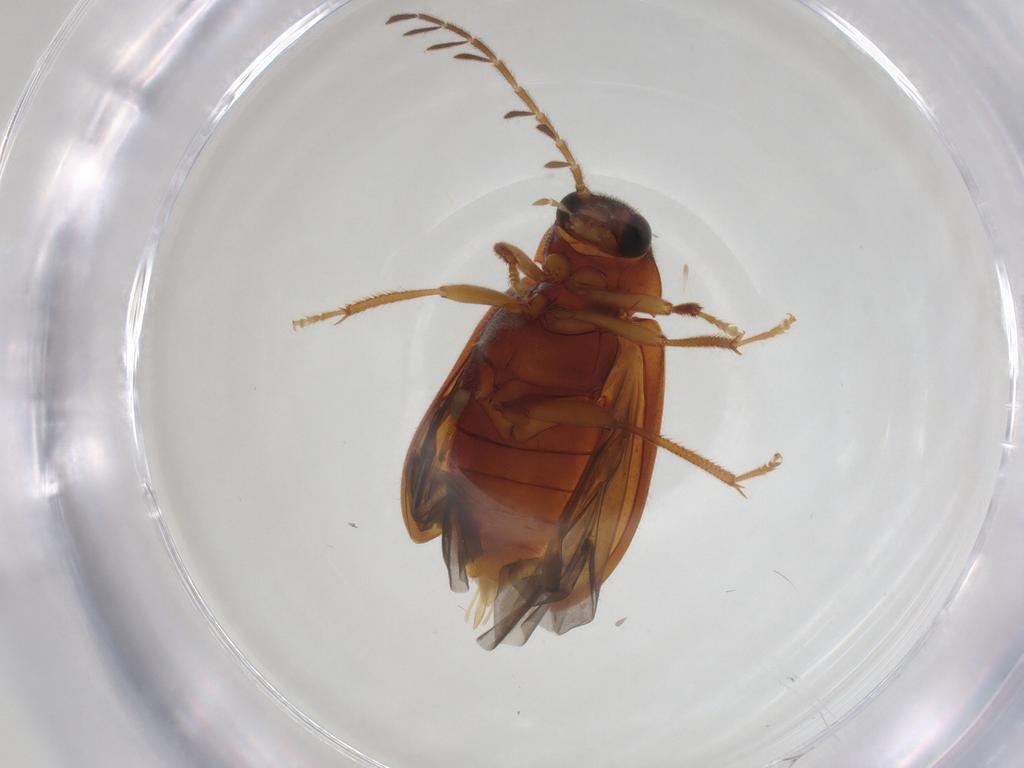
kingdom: Animalia
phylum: Arthropoda
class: Insecta
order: Coleoptera
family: Ptilodactylidae
